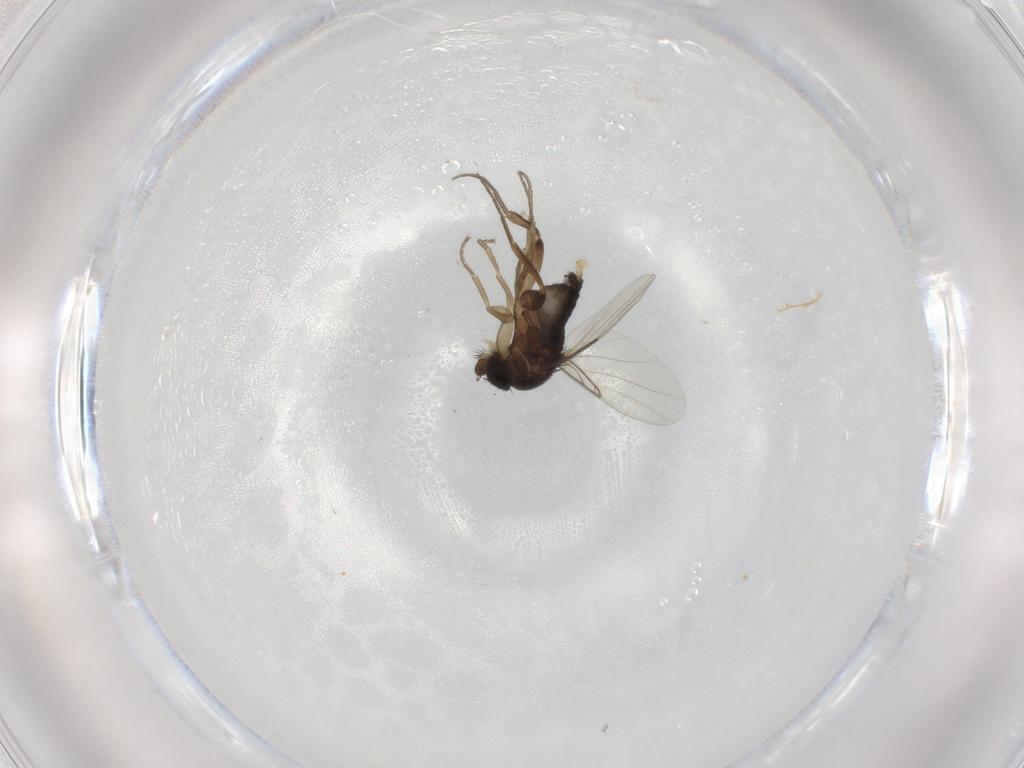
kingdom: Animalia
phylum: Arthropoda
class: Insecta
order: Diptera
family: Phoridae
